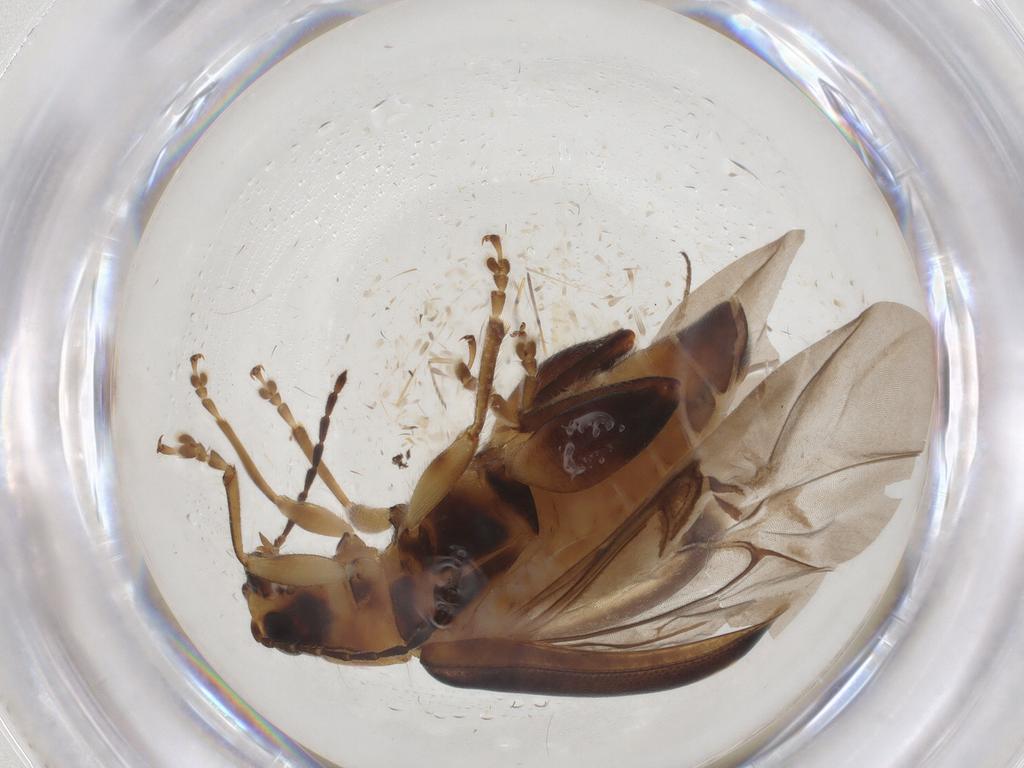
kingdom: Animalia
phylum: Arthropoda
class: Insecta
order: Coleoptera
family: Chrysomelidae
